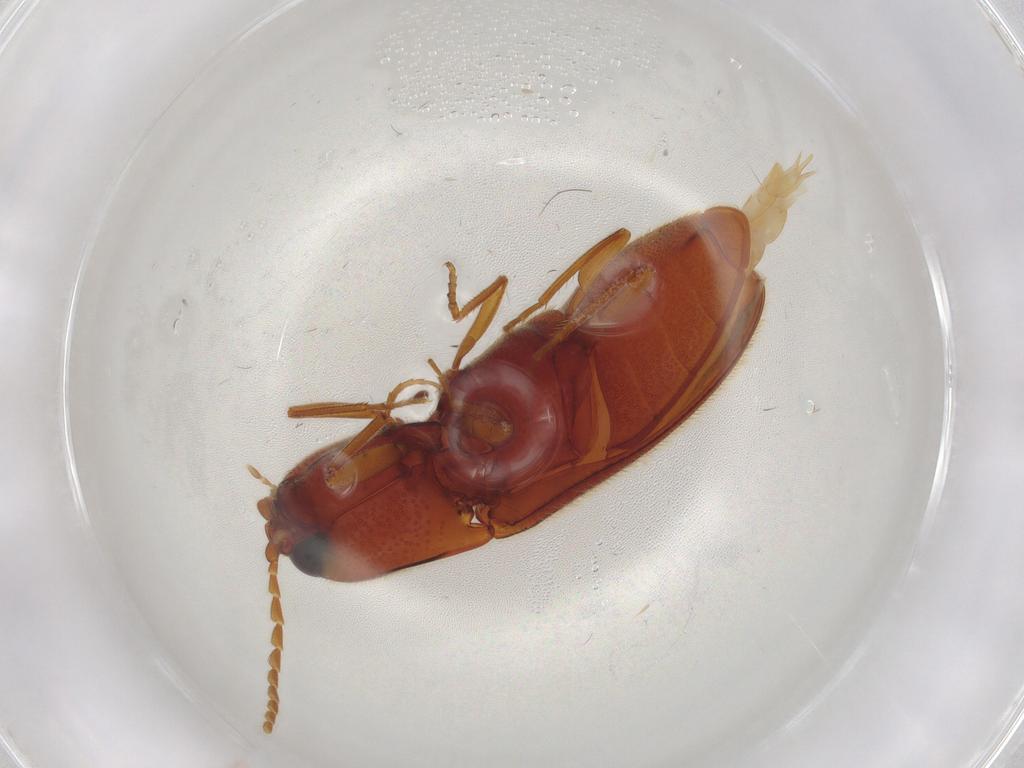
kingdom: Animalia
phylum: Arthropoda
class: Insecta
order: Coleoptera
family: Elateridae
